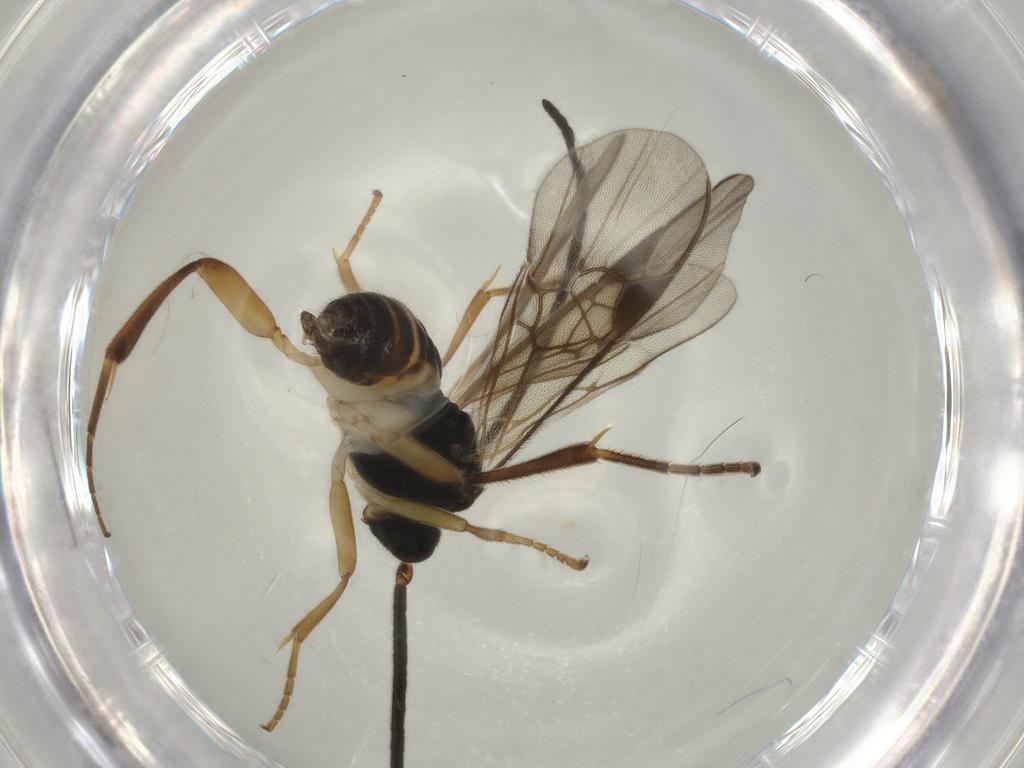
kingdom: Animalia
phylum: Arthropoda
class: Insecta
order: Hymenoptera
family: Braconidae
